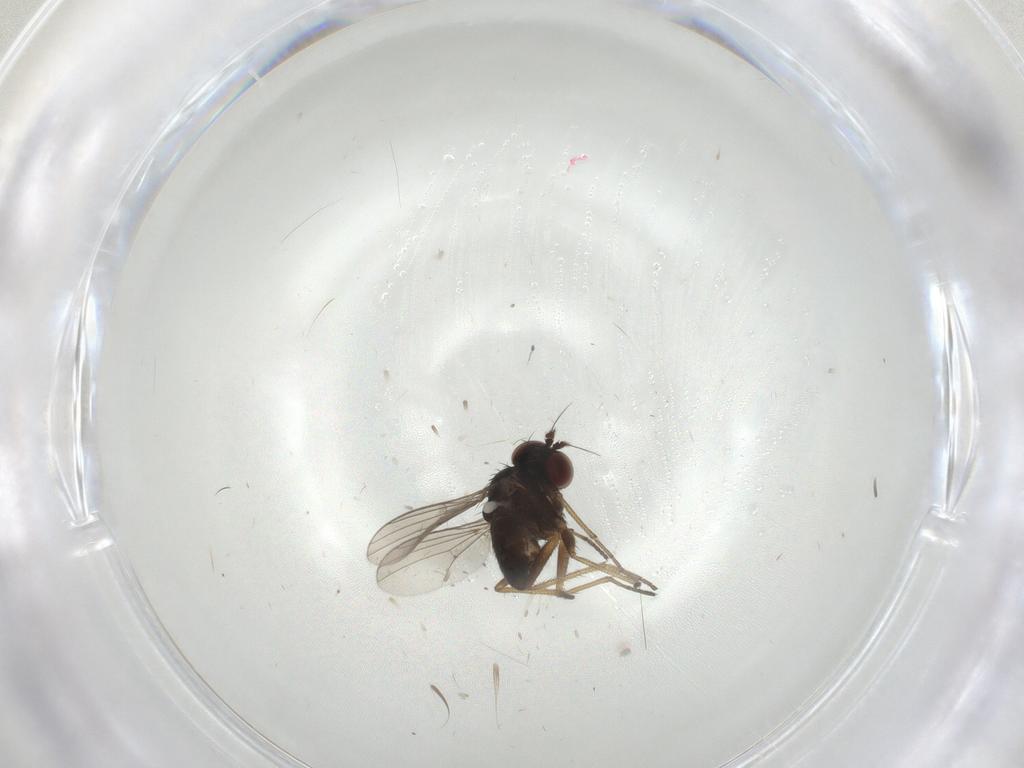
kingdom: Animalia
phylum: Arthropoda
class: Insecta
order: Diptera
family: Dolichopodidae
